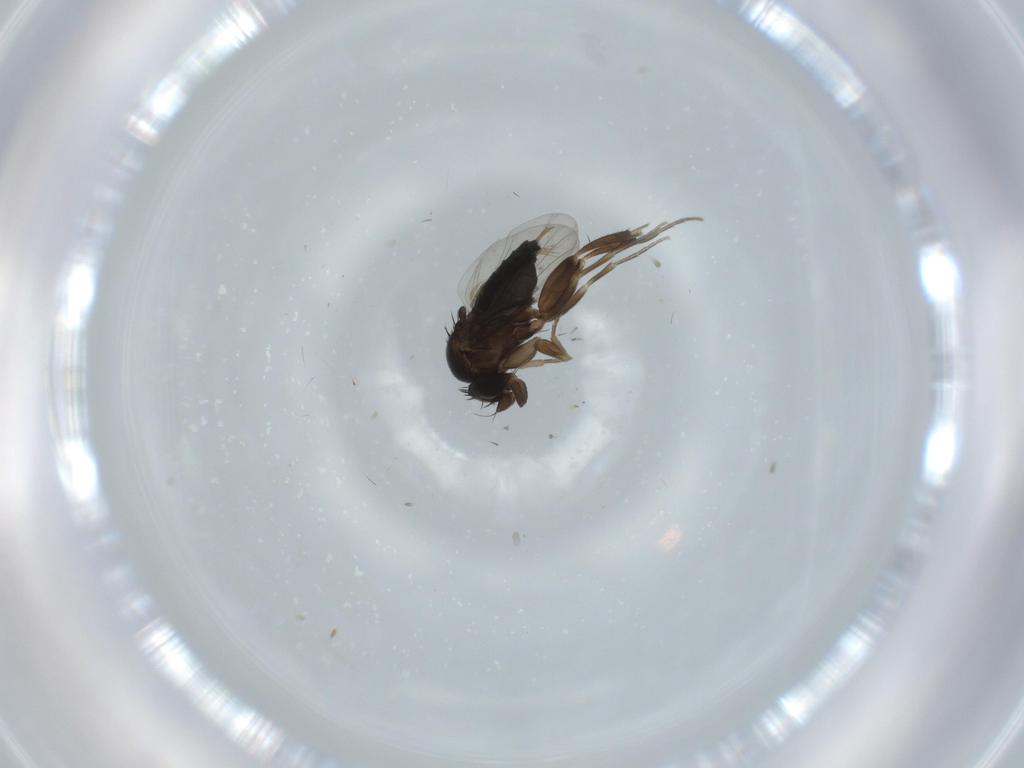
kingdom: Animalia
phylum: Arthropoda
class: Insecta
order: Diptera
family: Phoridae
